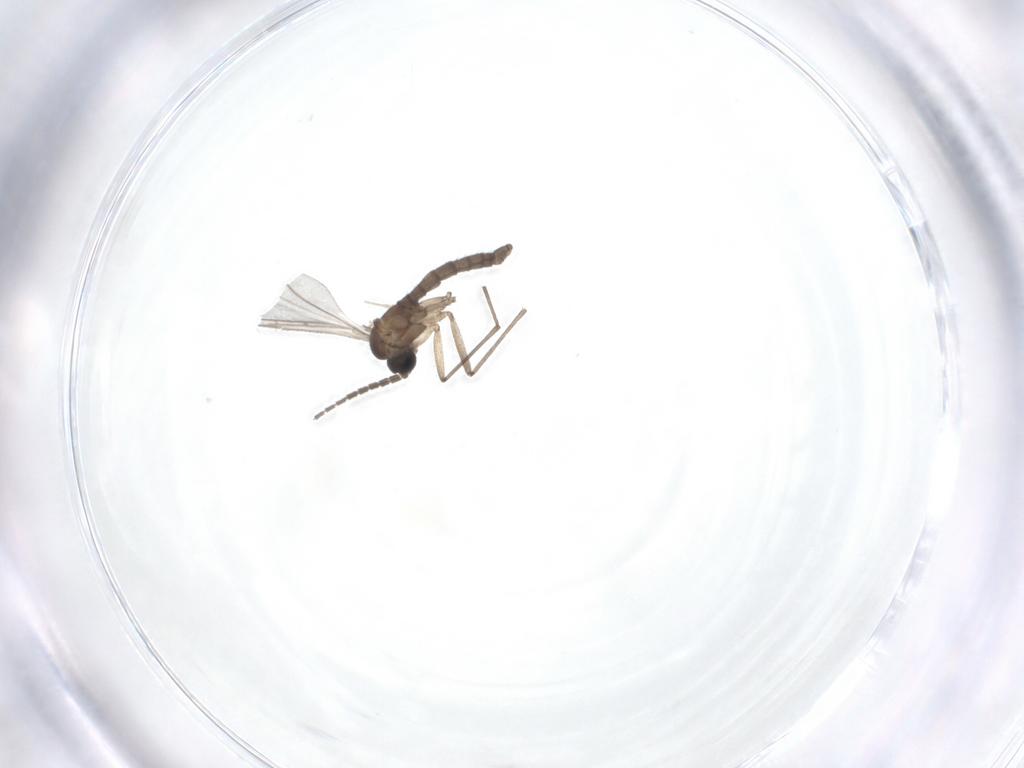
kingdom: Animalia
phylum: Arthropoda
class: Insecta
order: Diptera
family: Sciaridae
